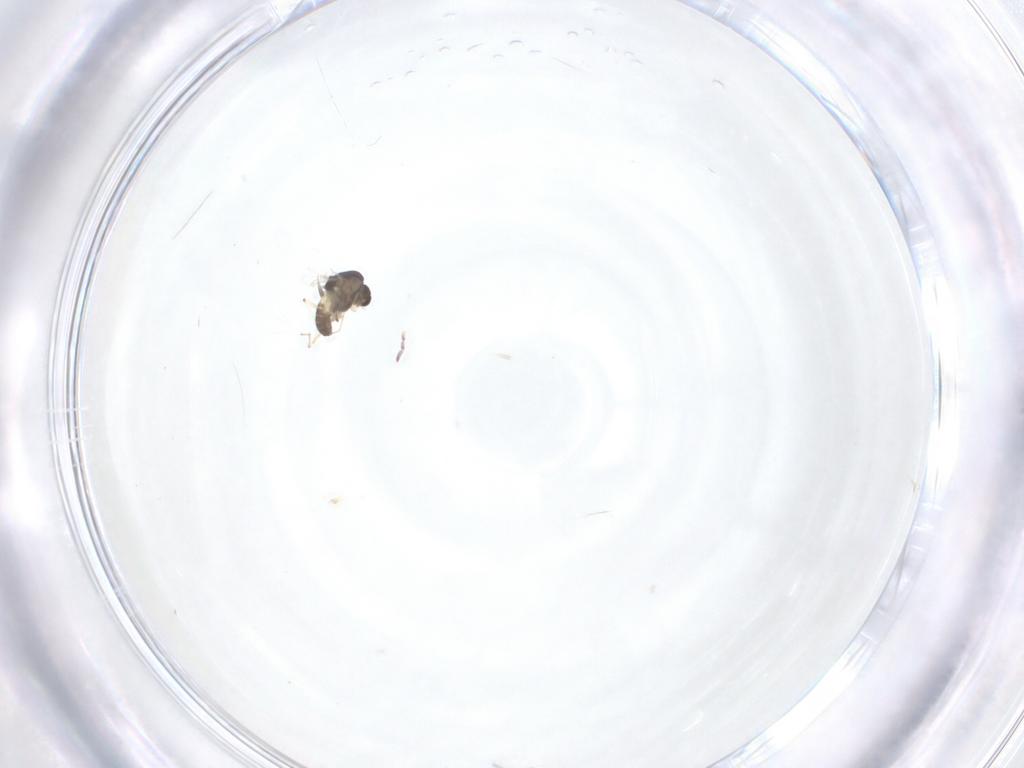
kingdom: Animalia
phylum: Arthropoda
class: Insecta
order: Diptera
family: Chironomidae
